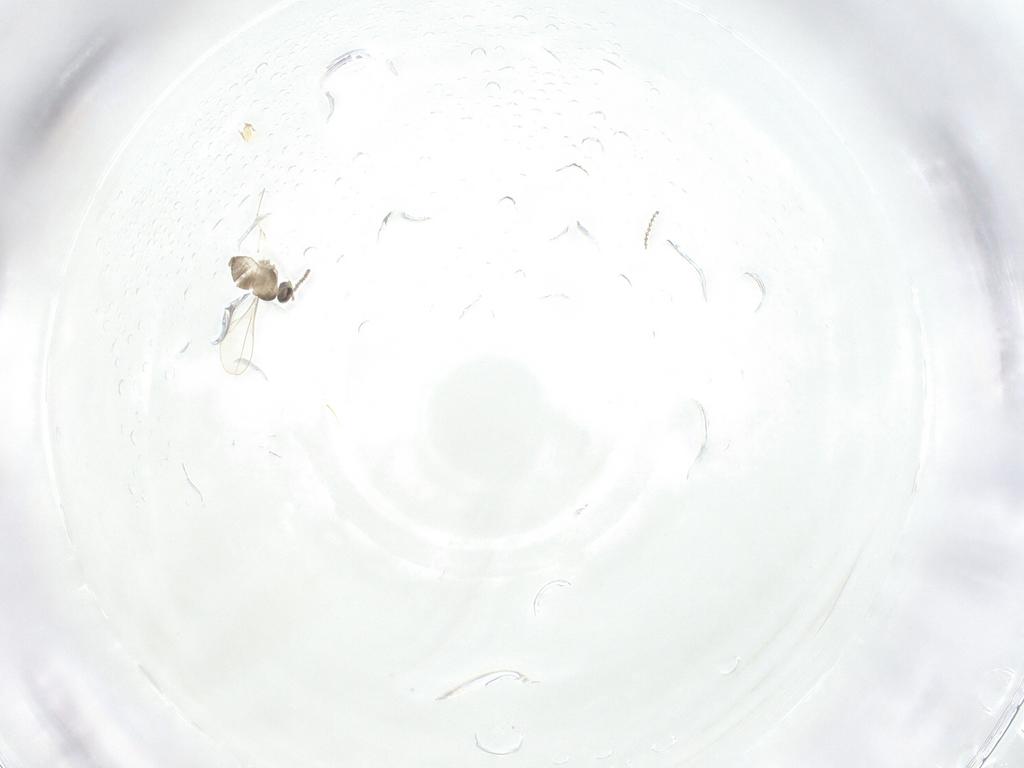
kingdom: Animalia
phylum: Arthropoda
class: Insecta
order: Diptera
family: Cecidomyiidae
